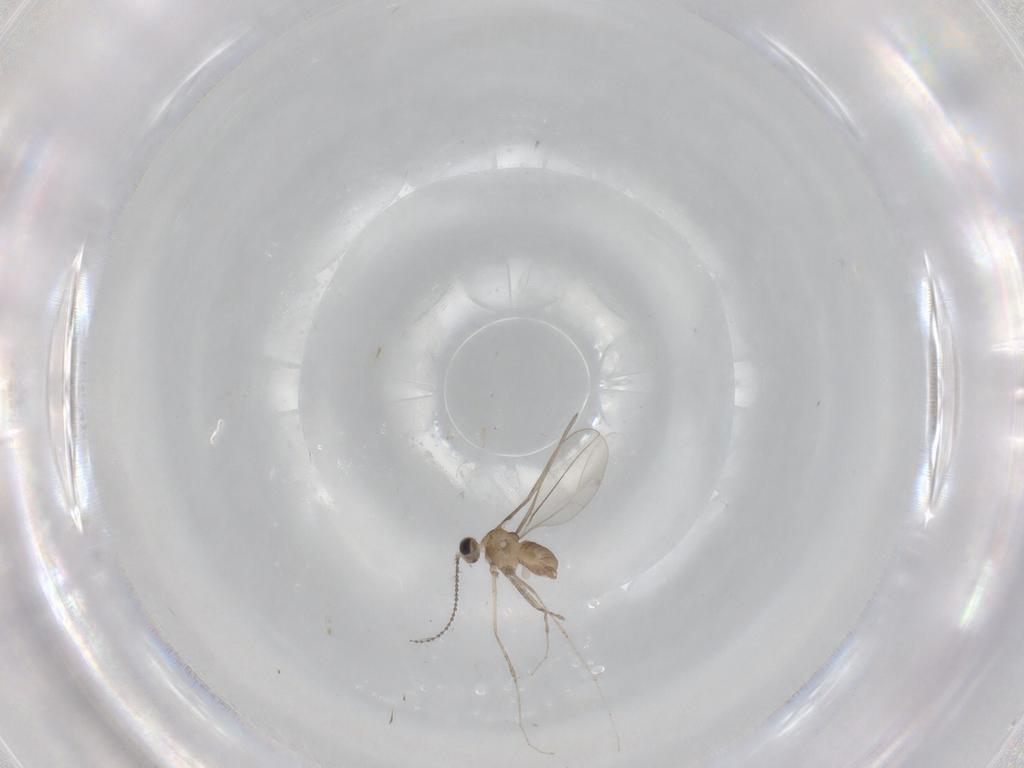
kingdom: Animalia
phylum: Arthropoda
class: Insecta
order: Diptera
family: Cecidomyiidae
